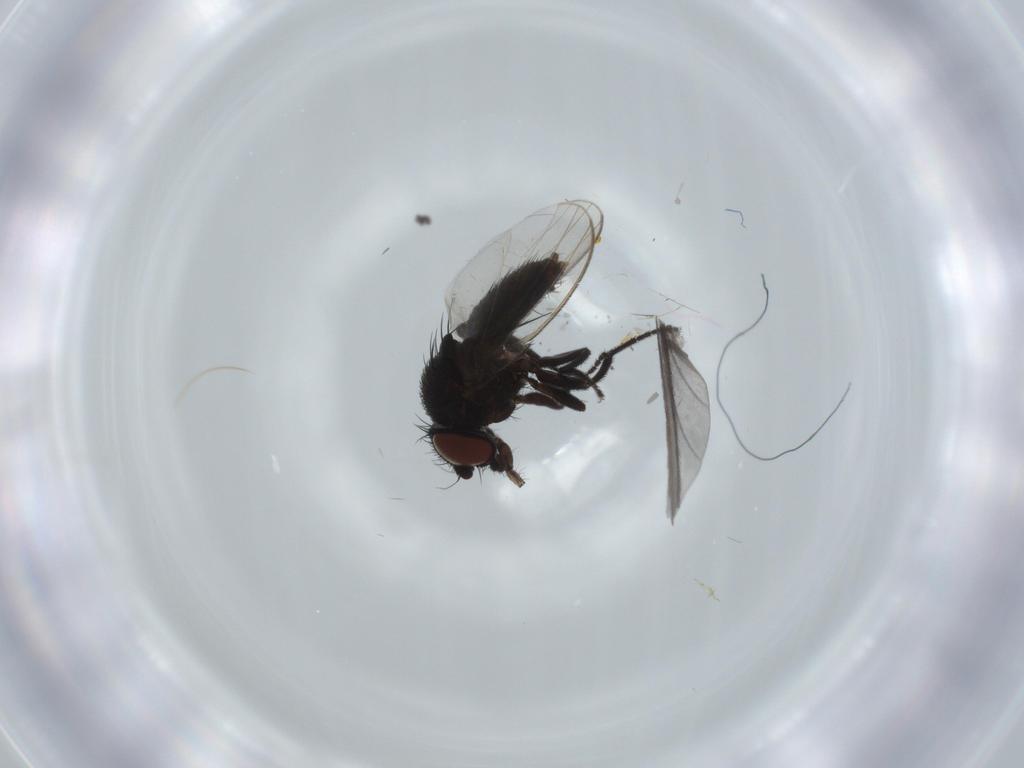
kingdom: Animalia
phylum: Arthropoda
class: Insecta
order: Diptera
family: Sciaridae
